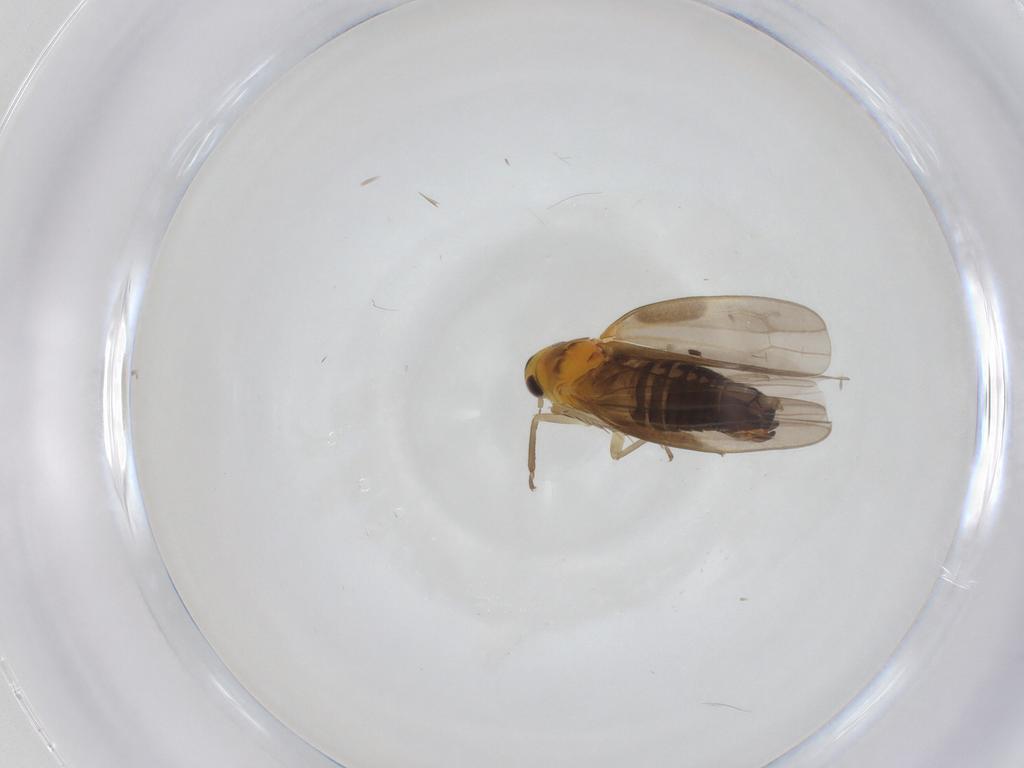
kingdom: Animalia
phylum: Arthropoda
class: Insecta
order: Hemiptera
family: Cicadellidae
